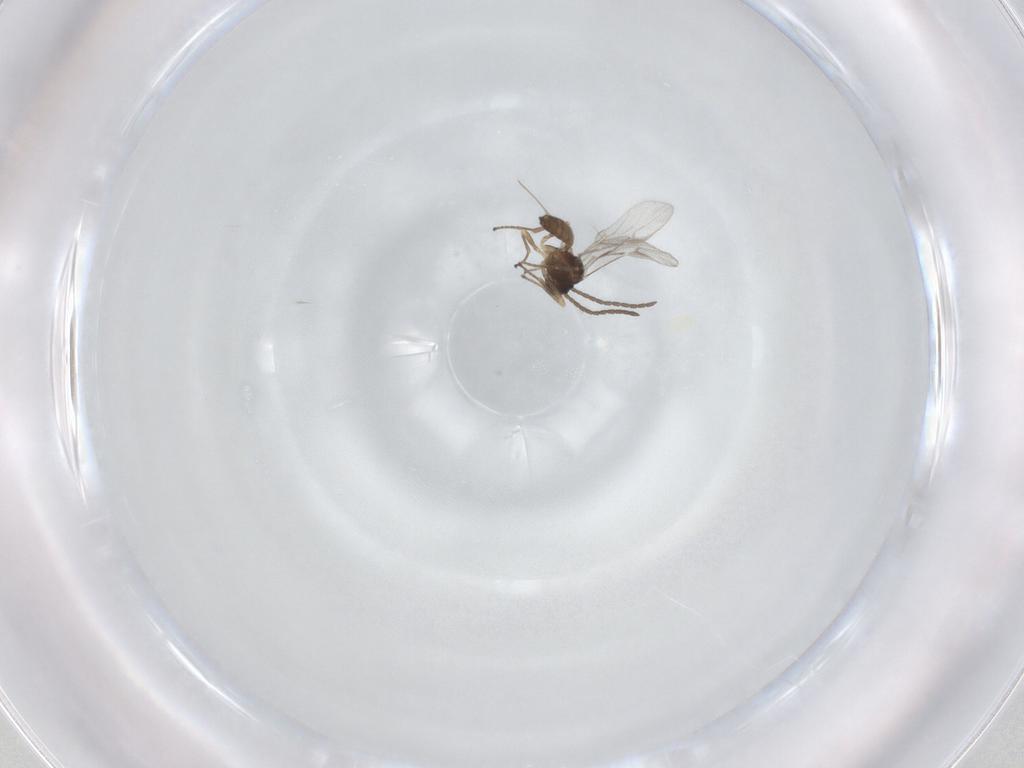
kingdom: Animalia
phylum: Arthropoda
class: Insecta
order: Hymenoptera
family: Braconidae
